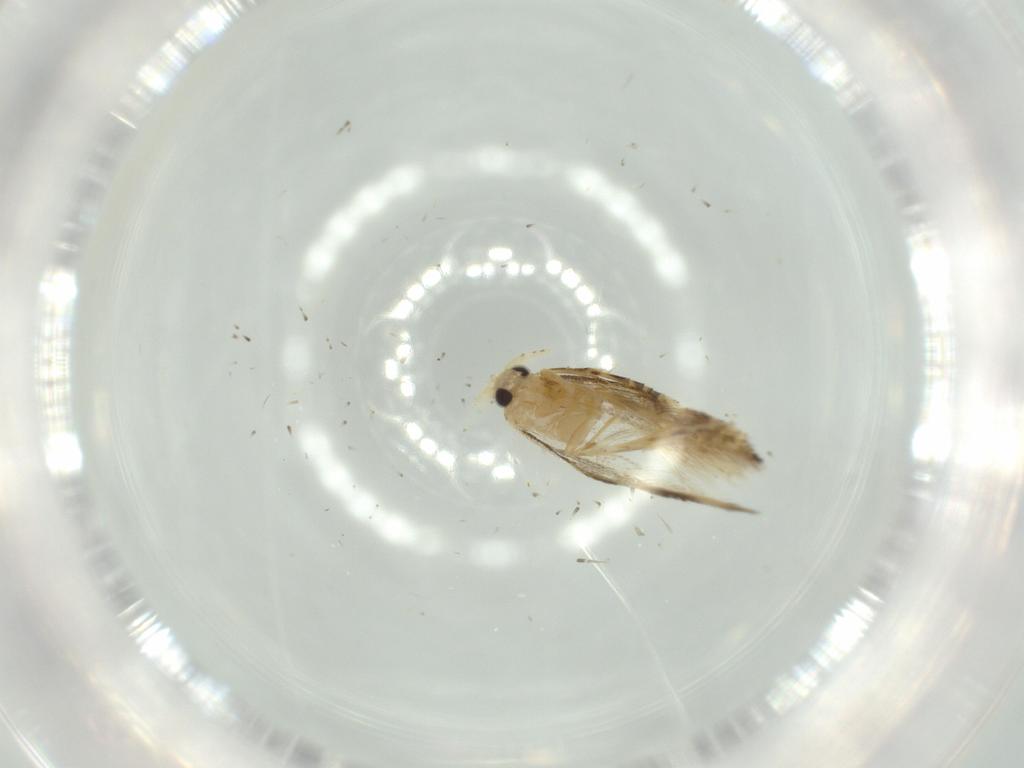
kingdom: Animalia
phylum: Arthropoda
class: Insecta
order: Lepidoptera
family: Bucculatricidae
